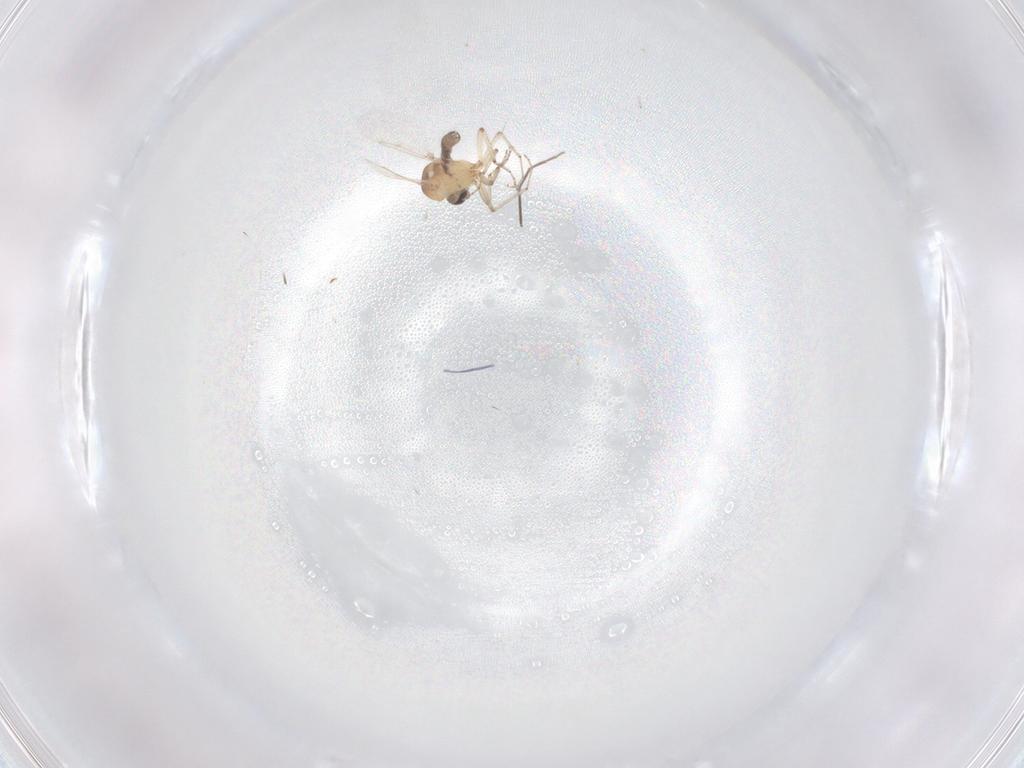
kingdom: Animalia
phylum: Arthropoda
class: Insecta
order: Diptera
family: Ceratopogonidae
